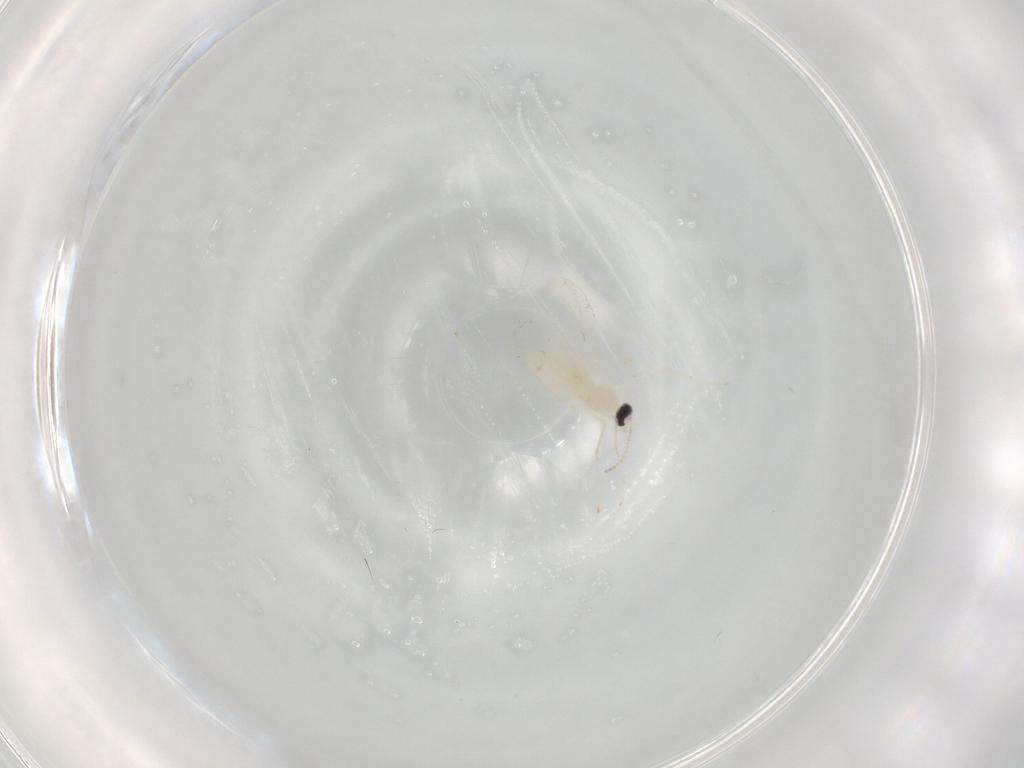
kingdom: Animalia
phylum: Arthropoda
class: Insecta
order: Diptera
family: Cecidomyiidae
